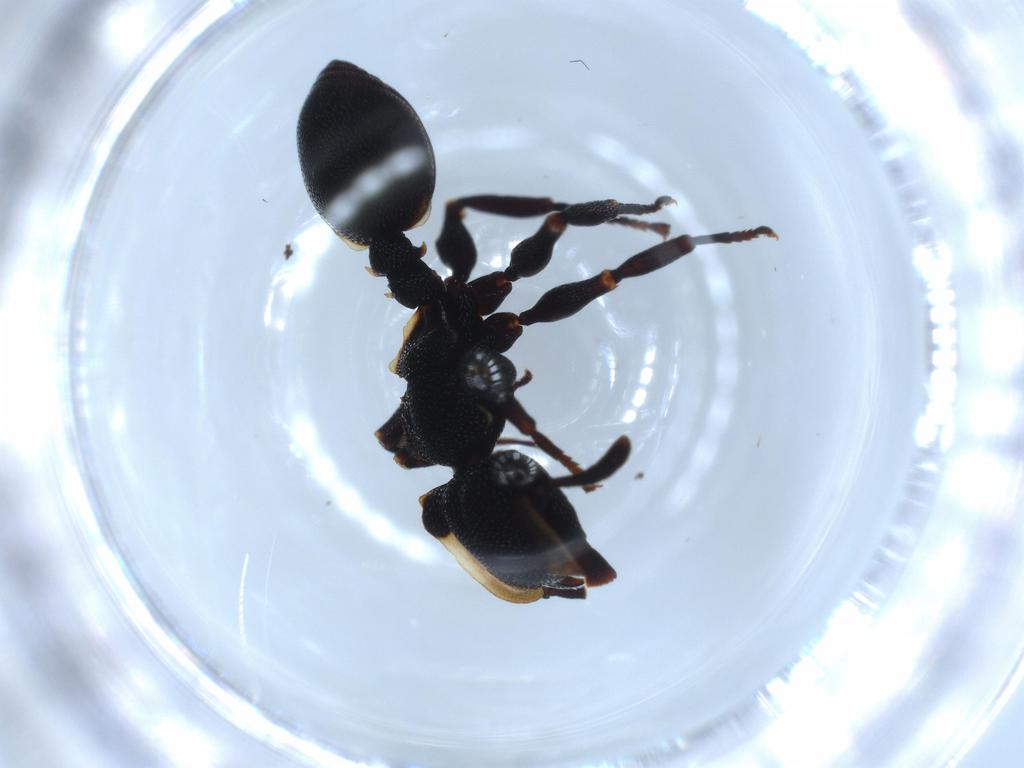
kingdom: Animalia
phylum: Arthropoda
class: Insecta
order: Hymenoptera
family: Formicidae
